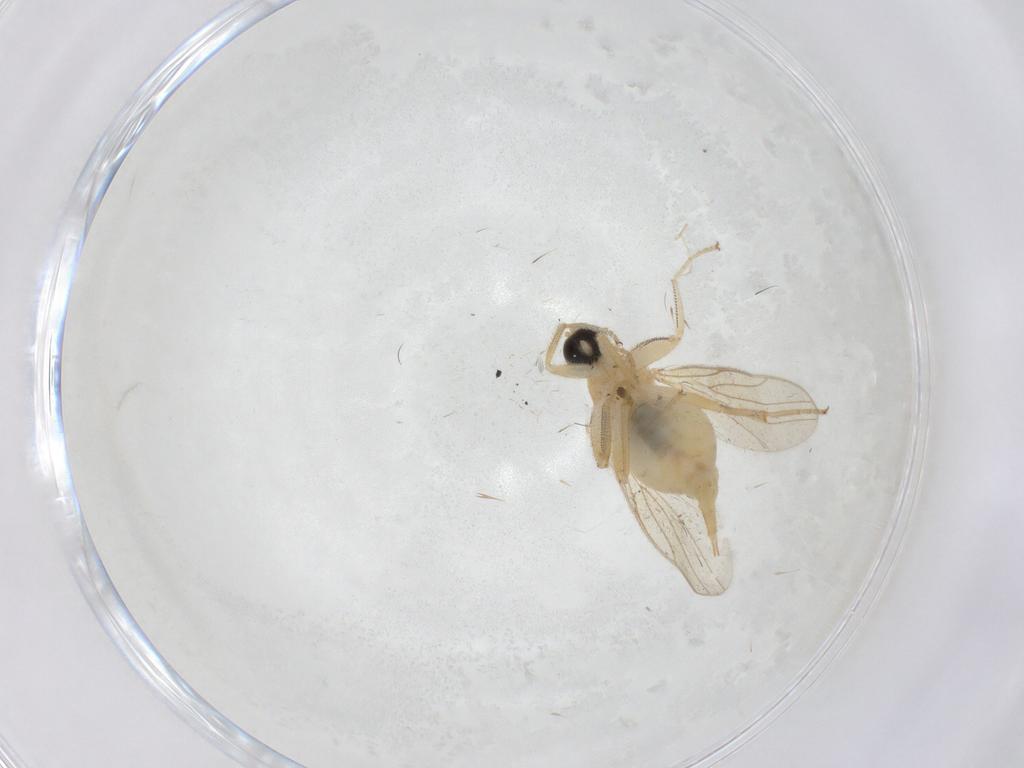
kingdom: Animalia
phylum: Arthropoda
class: Insecta
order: Diptera
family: Sciaridae
